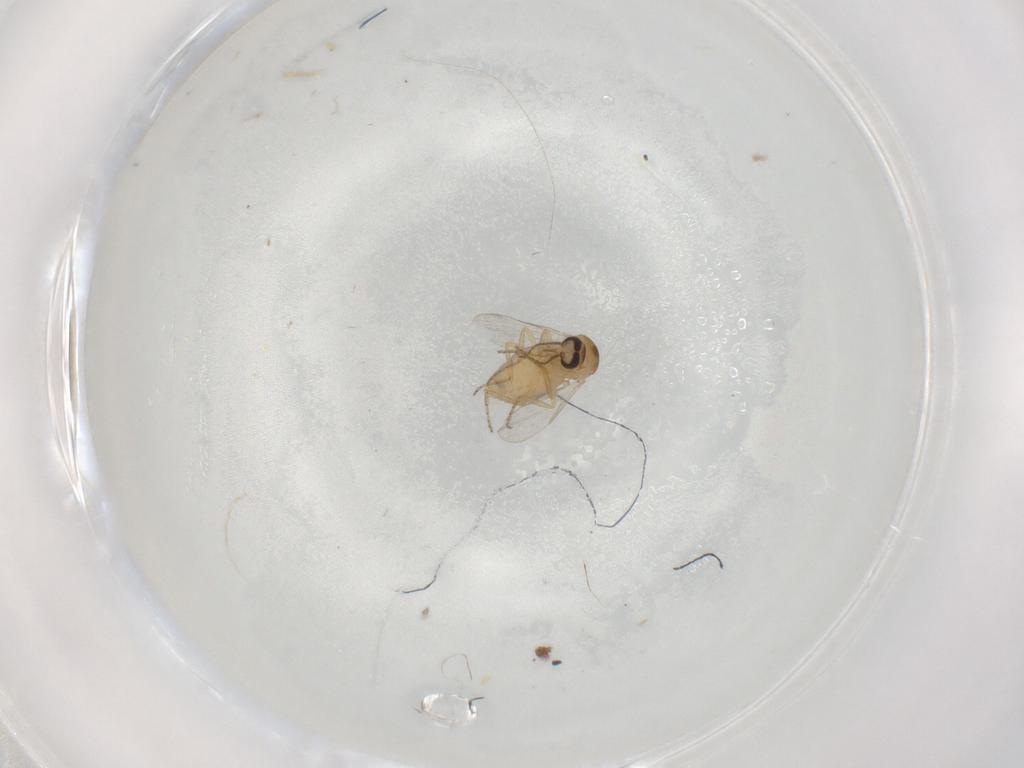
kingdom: Animalia
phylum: Arthropoda
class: Insecta
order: Diptera
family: Ceratopogonidae
